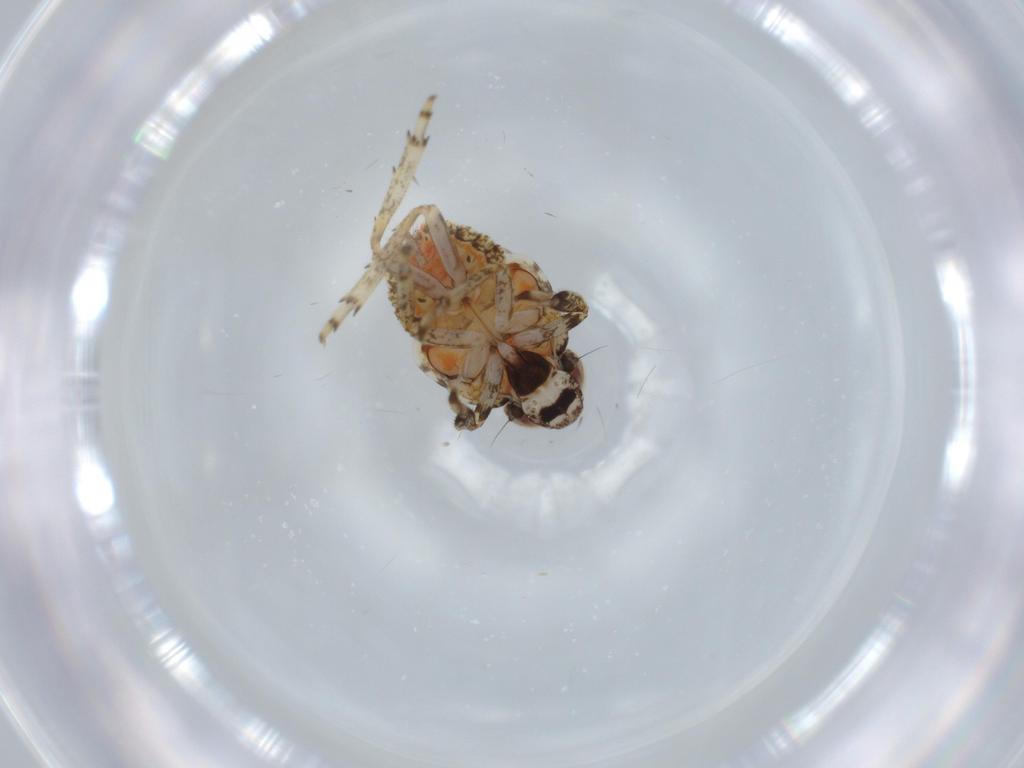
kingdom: Animalia
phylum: Arthropoda
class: Insecta
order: Hemiptera
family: Issidae
